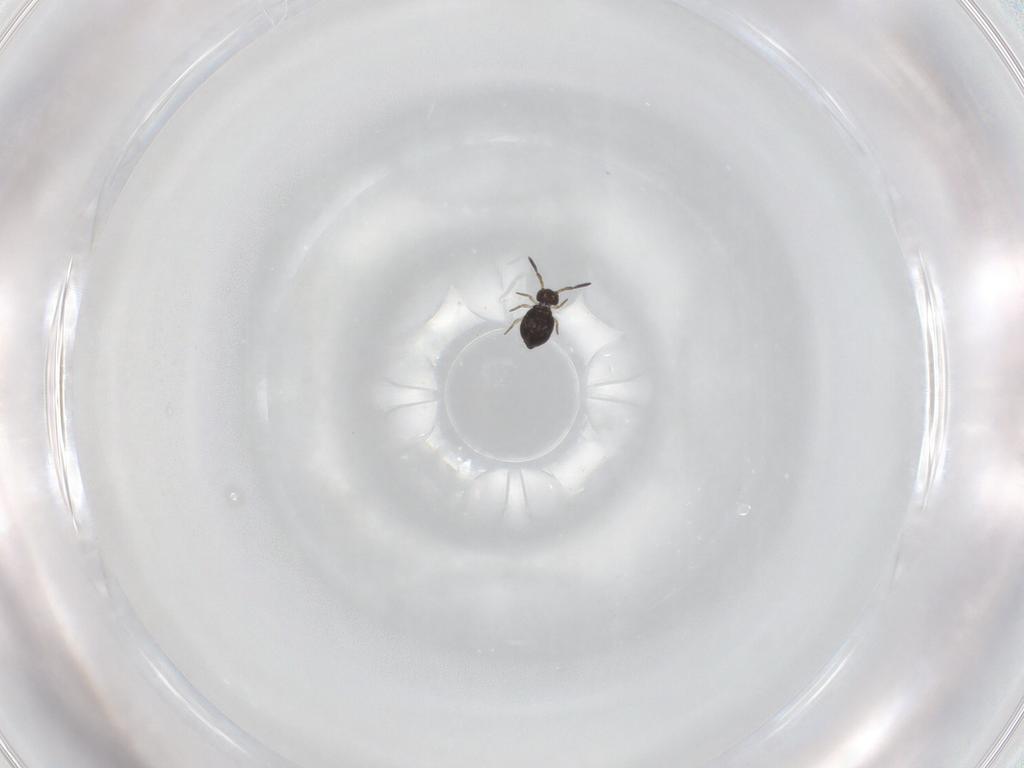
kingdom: Animalia
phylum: Arthropoda
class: Collembola
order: Symphypleona
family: Katiannidae
